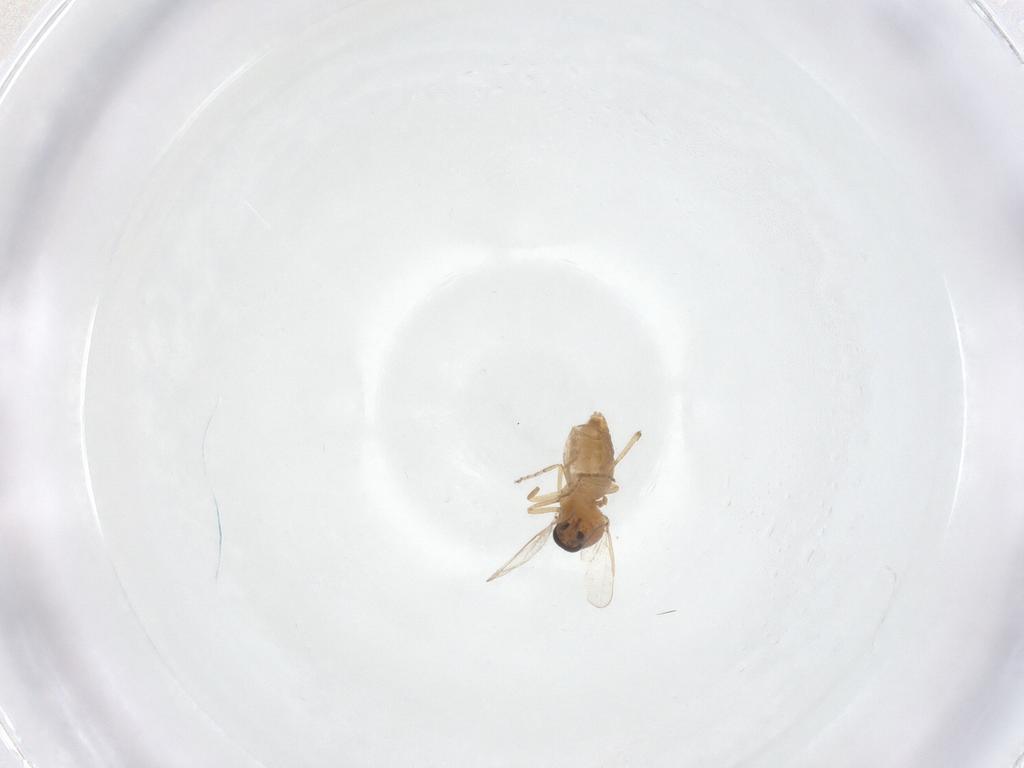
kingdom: Animalia
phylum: Arthropoda
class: Insecta
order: Diptera
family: Ceratopogonidae
